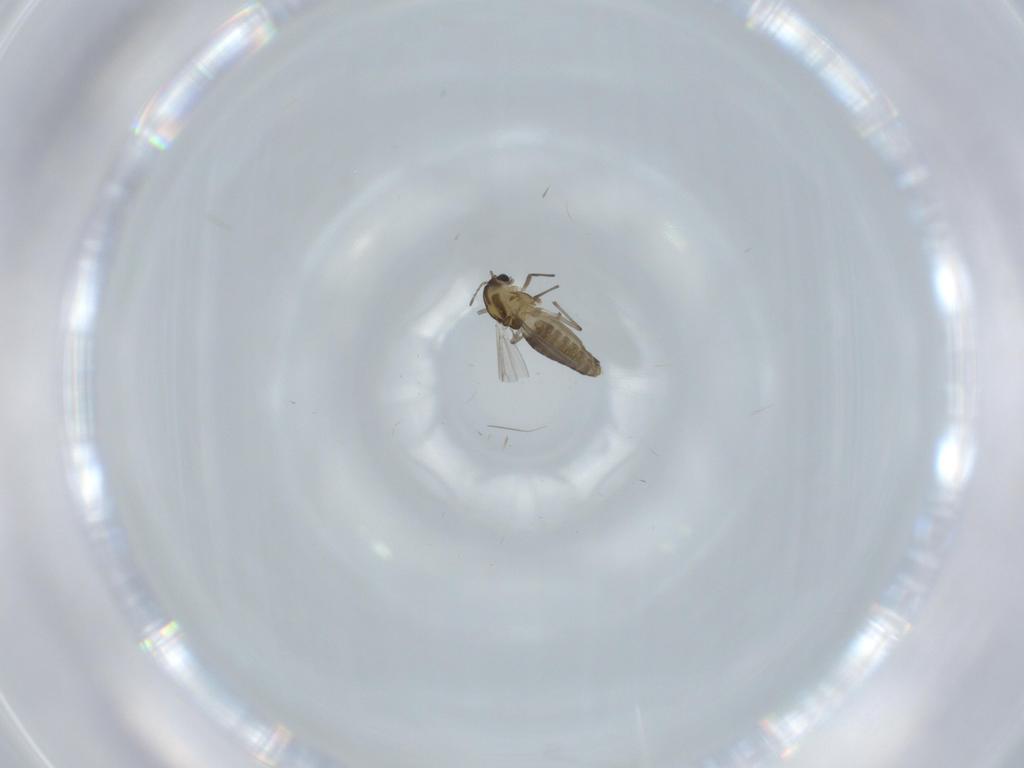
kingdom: Animalia
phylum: Arthropoda
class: Insecta
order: Diptera
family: Chironomidae
